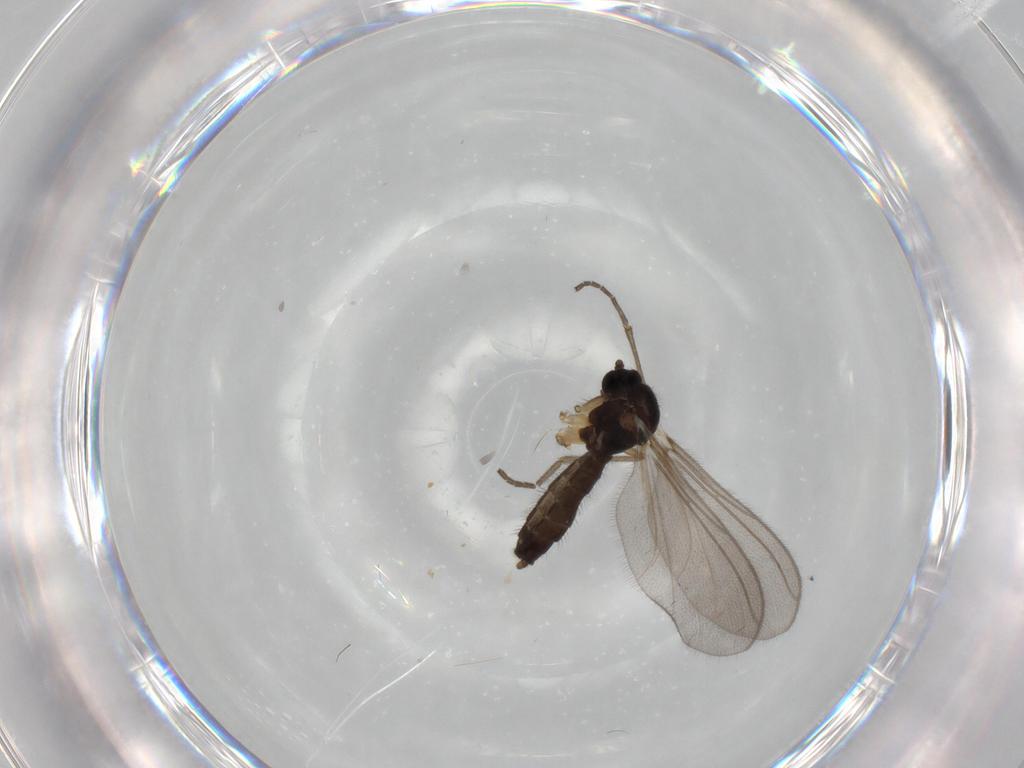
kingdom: Animalia
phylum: Arthropoda
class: Insecta
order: Diptera
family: Mycetophilidae
